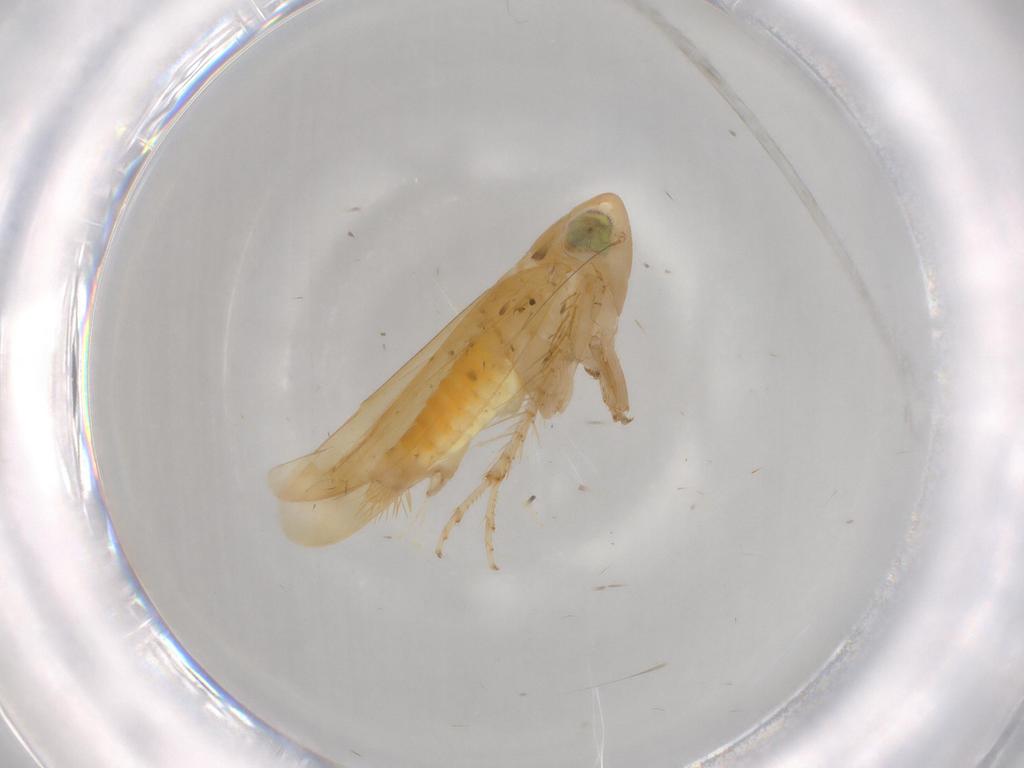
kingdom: Animalia
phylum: Arthropoda
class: Insecta
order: Hemiptera
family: Cicadellidae
